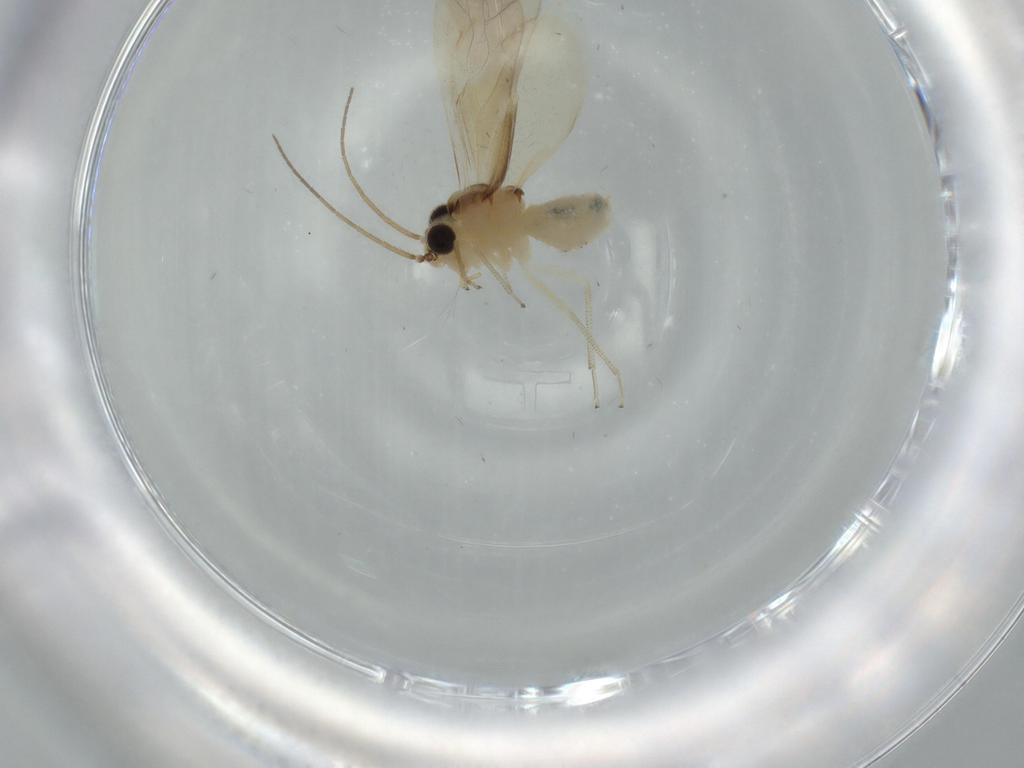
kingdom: Animalia
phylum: Arthropoda
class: Insecta
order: Psocodea
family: Caeciliusidae
